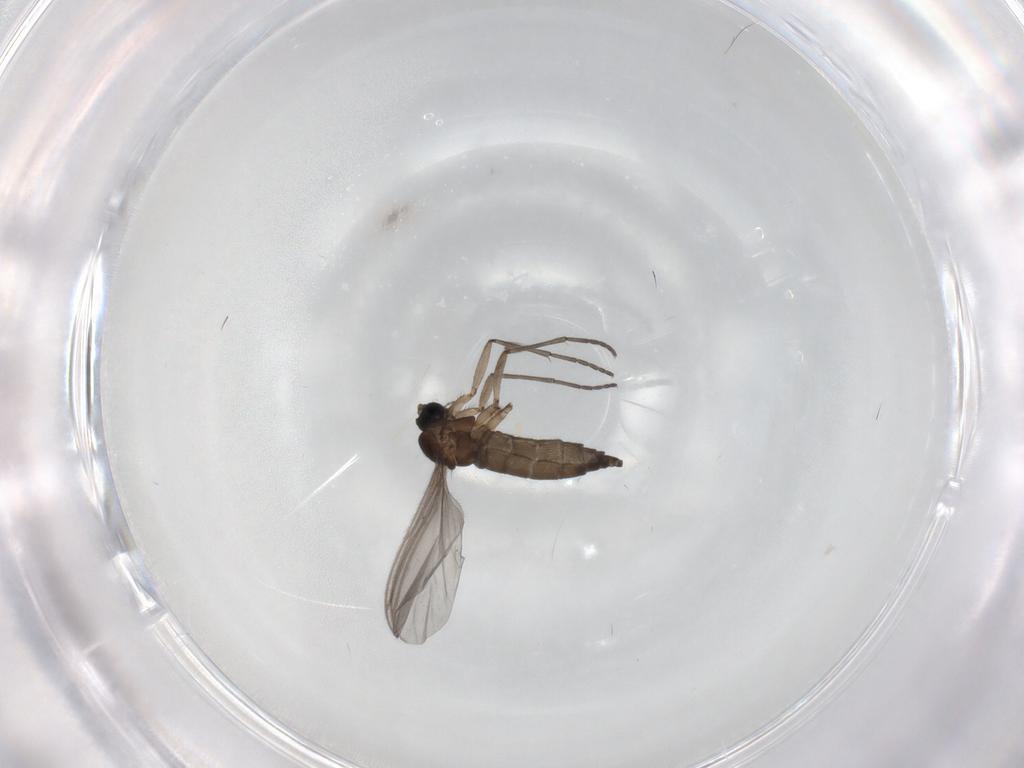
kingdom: Animalia
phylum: Arthropoda
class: Insecta
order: Diptera
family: Sciaridae
